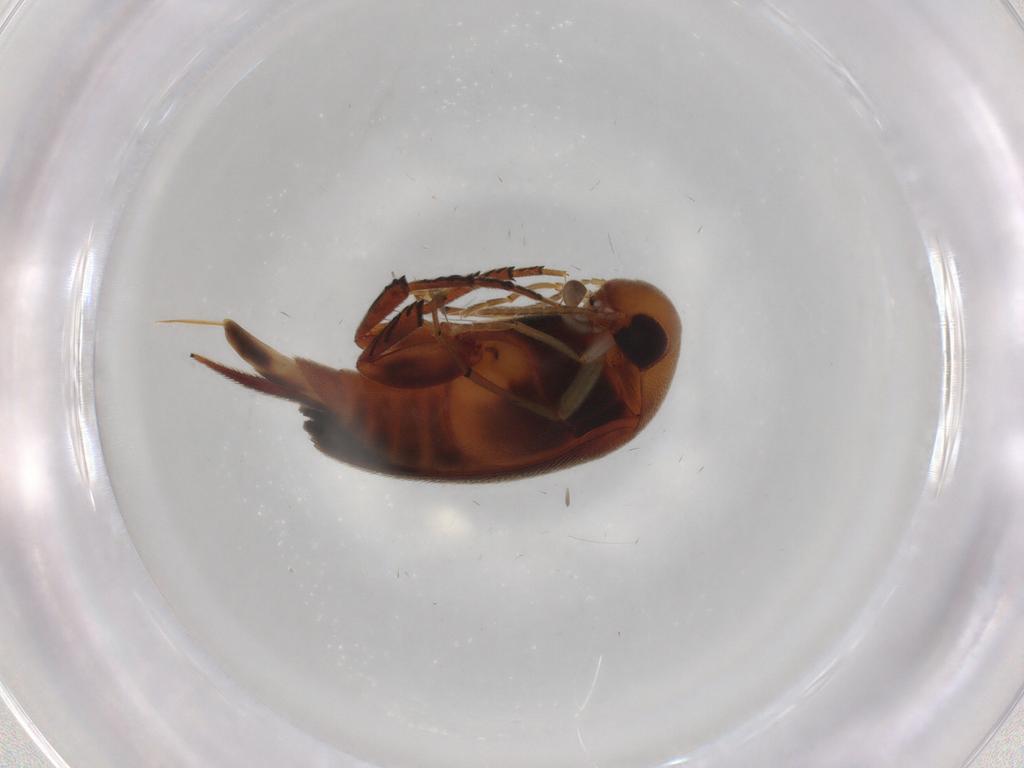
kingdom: Animalia
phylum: Arthropoda
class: Insecta
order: Coleoptera
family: Mordellidae
